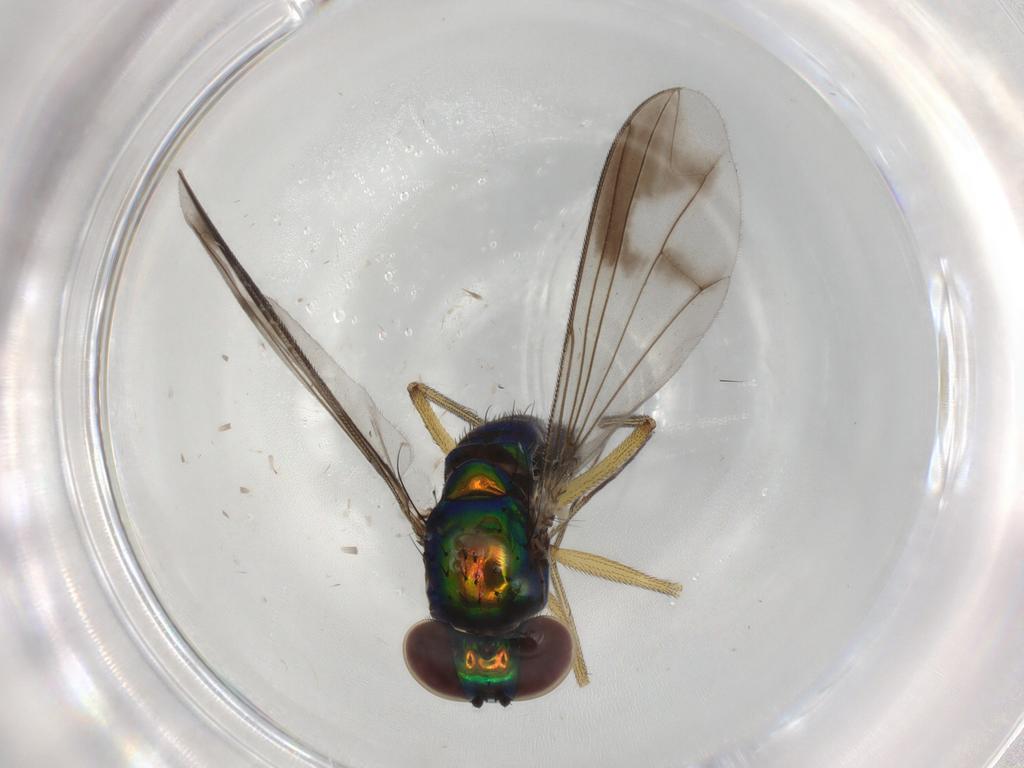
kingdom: Animalia
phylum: Arthropoda
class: Insecta
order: Diptera
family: Dolichopodidae
